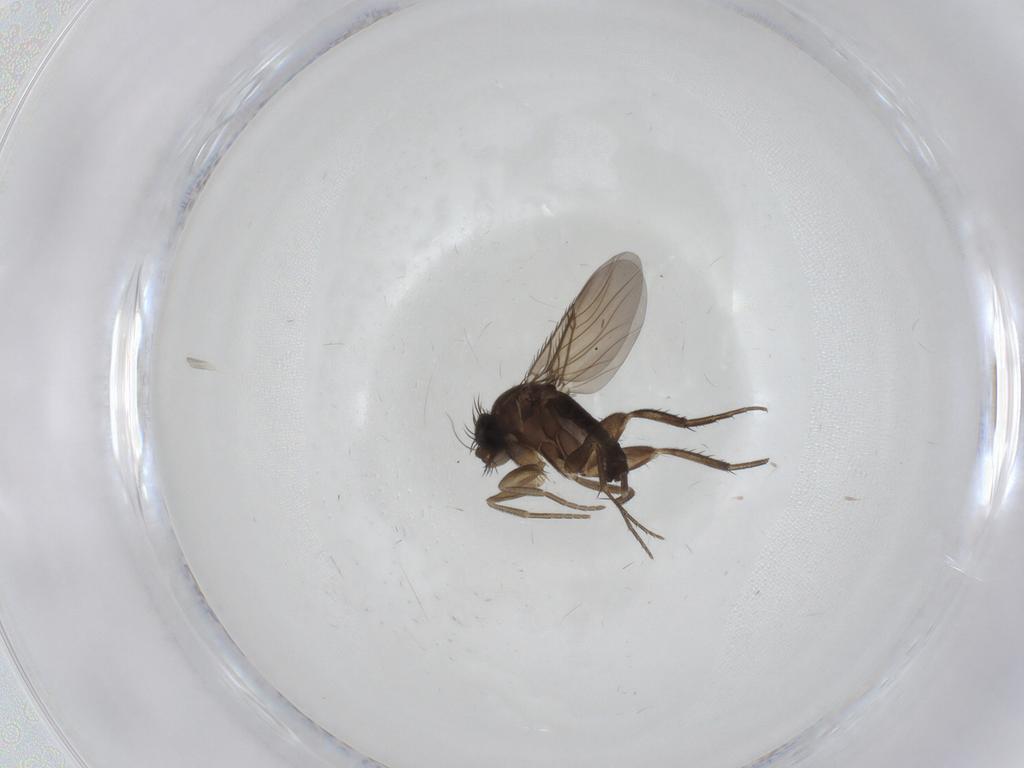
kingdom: Animalia
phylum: Arthropoda
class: Insecta
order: Diptera
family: Phoridae
